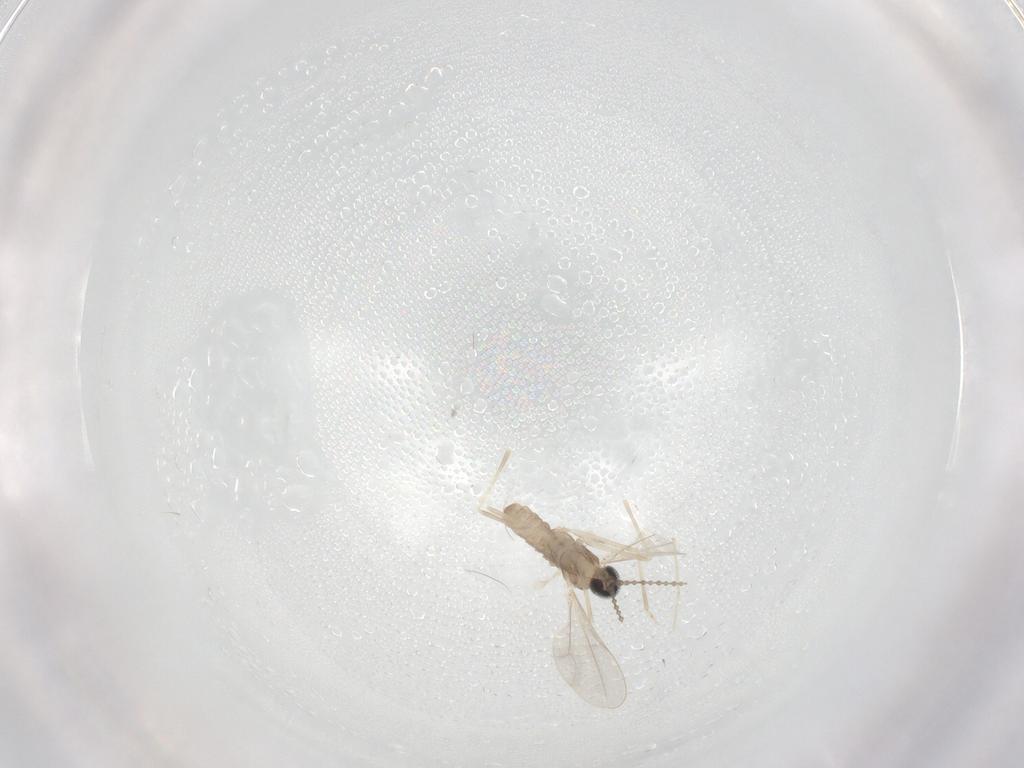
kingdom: Animalia
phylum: Arthropoda
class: Insecta
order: Diptera
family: Cecidomyiidae
